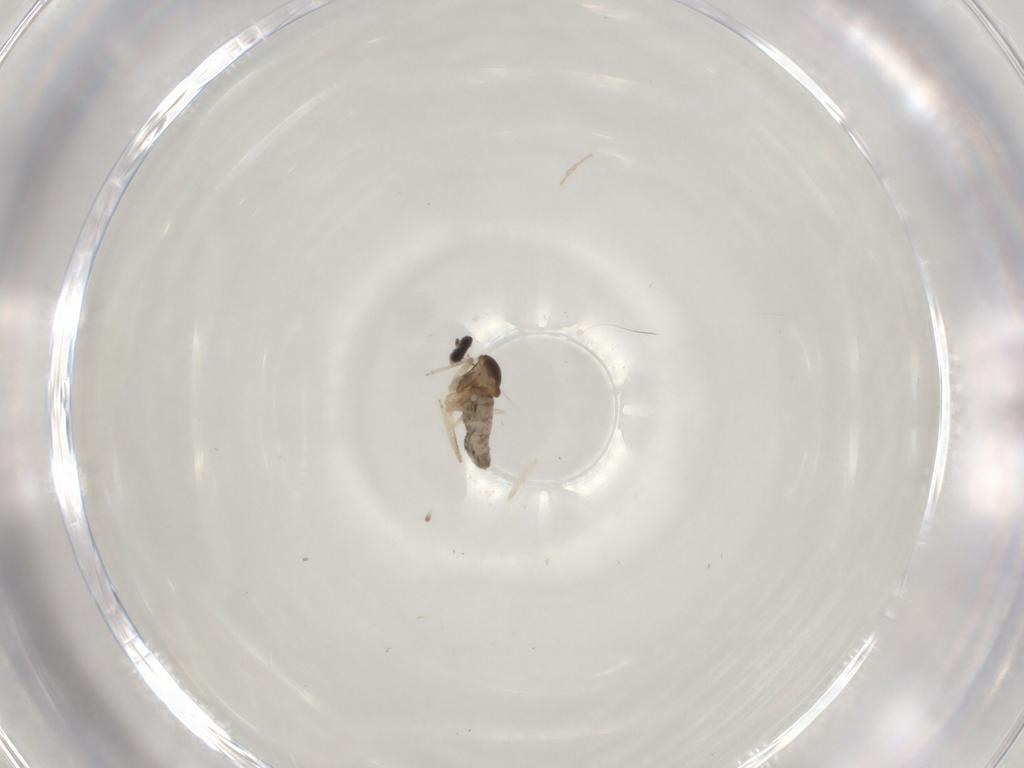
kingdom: Animalia
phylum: Arthropoda
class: Insecta
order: Diptera
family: Cecidomyiidae
